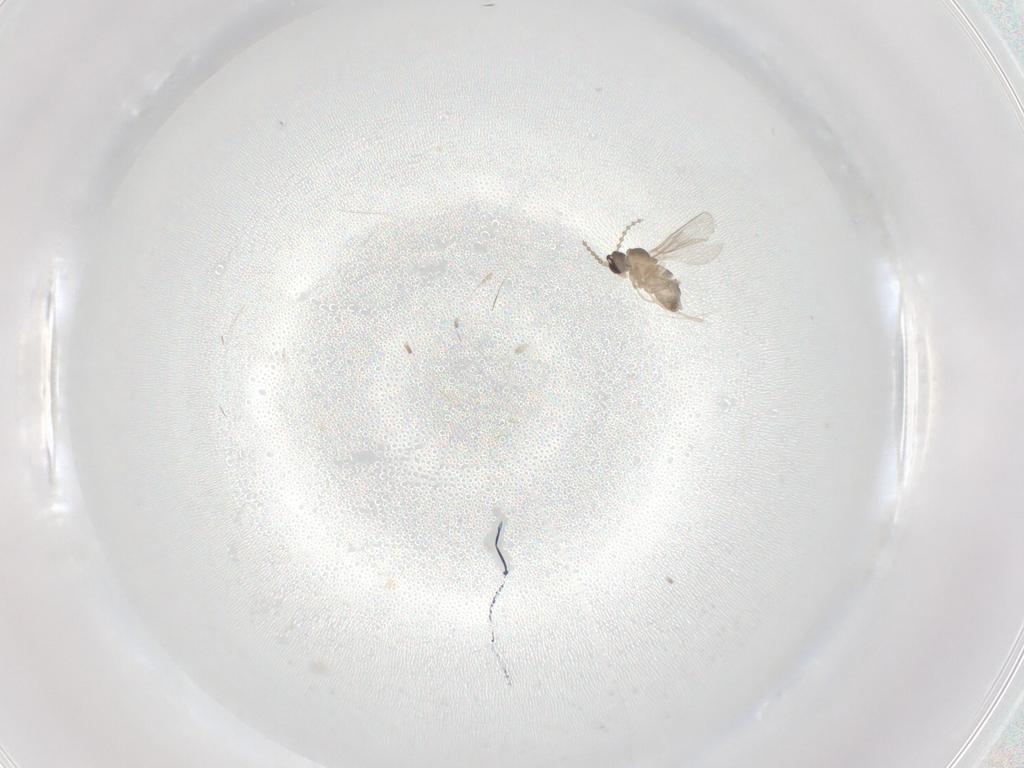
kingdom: Animalia
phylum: Arthropoda
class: Insecta
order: Diptera
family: Cecidomyiidae
